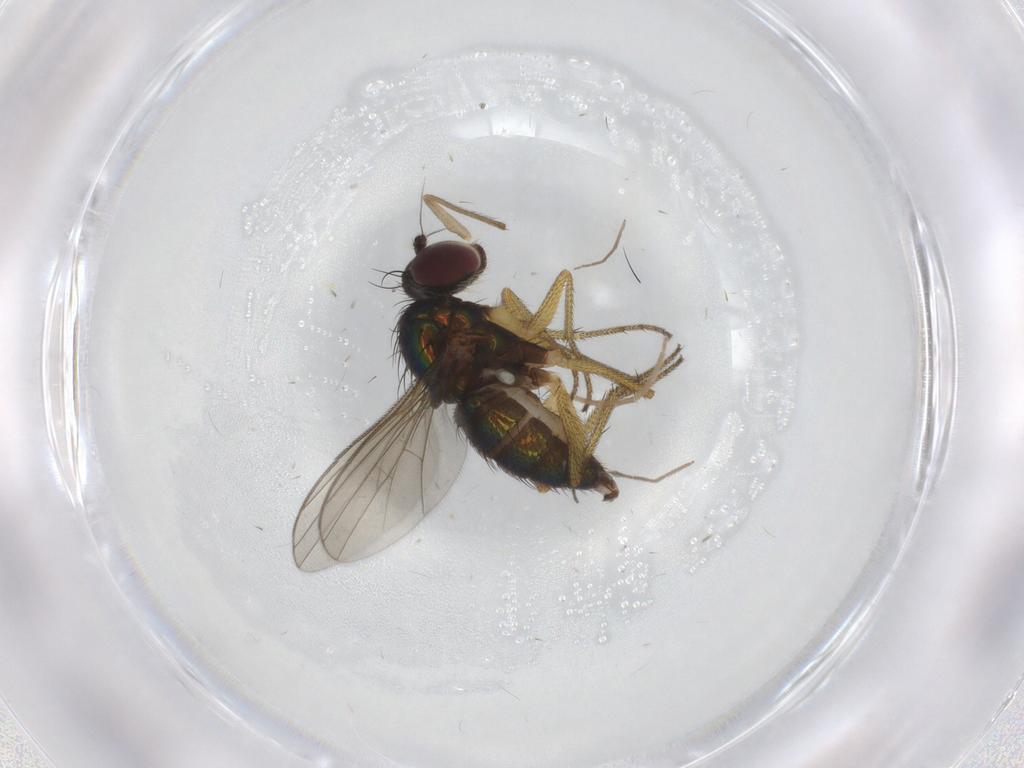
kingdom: Animalia
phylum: Arthropoda
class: Insecta
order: Diptera
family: Chironomidae
